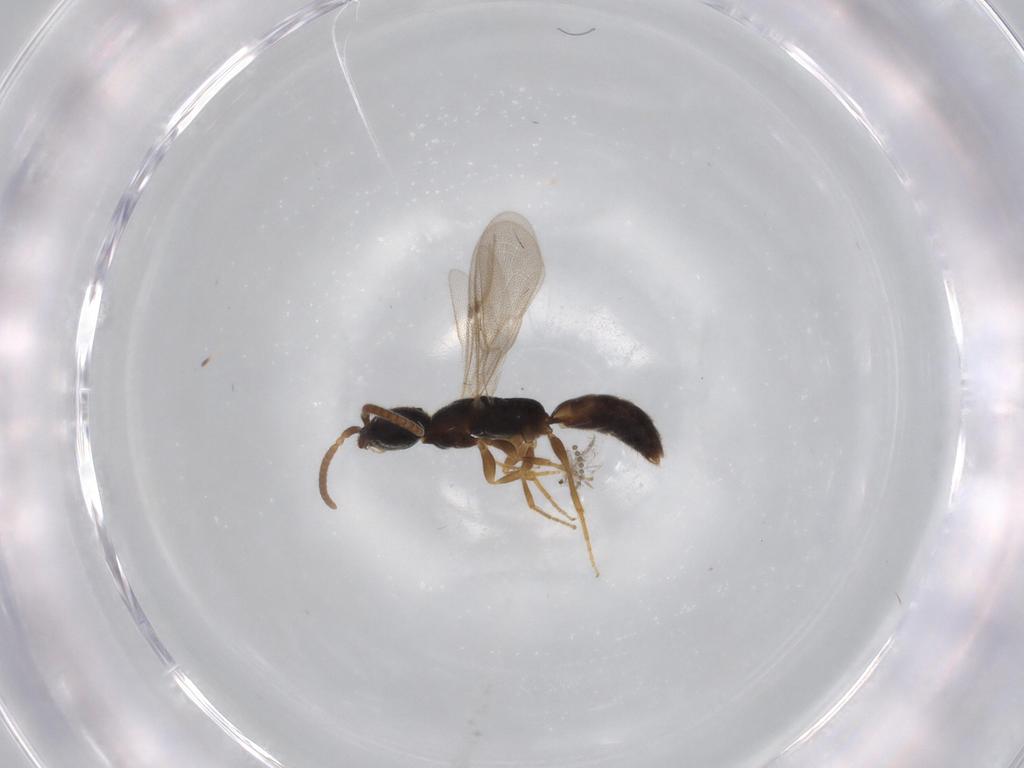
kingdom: Animalia
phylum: Arthropoda
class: Insecta
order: Hymenoptera
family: Bethylidae
